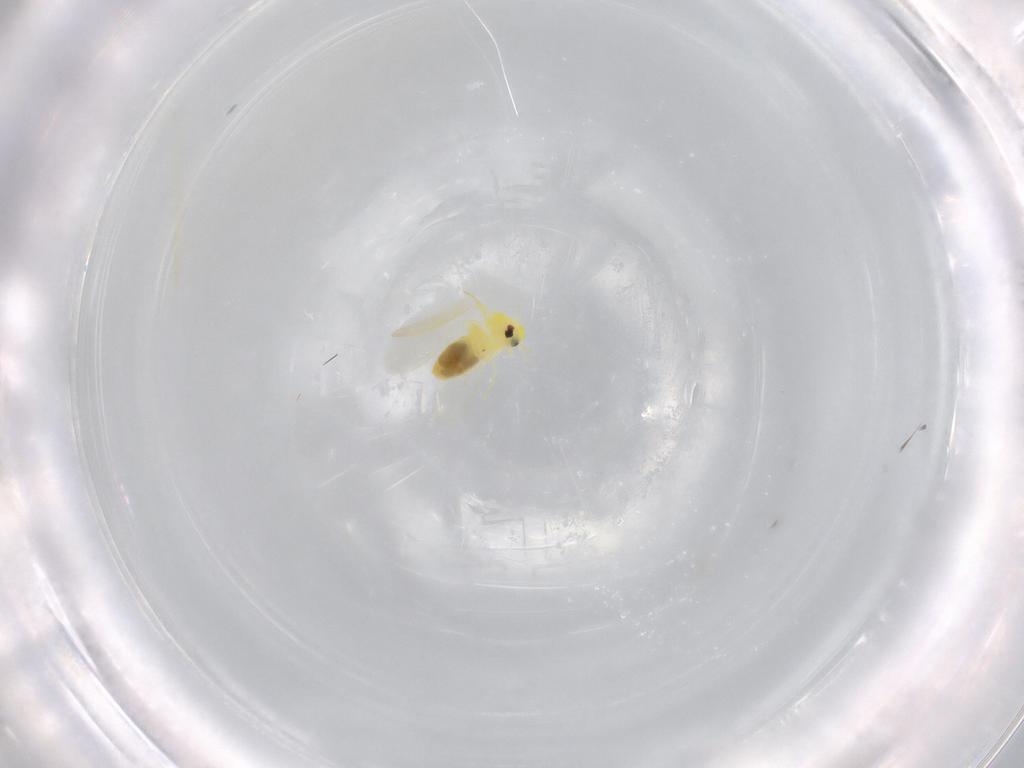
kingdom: Animalia
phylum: Arthropoda
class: Insecta
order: Hemiptera
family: Aleyrodidae
